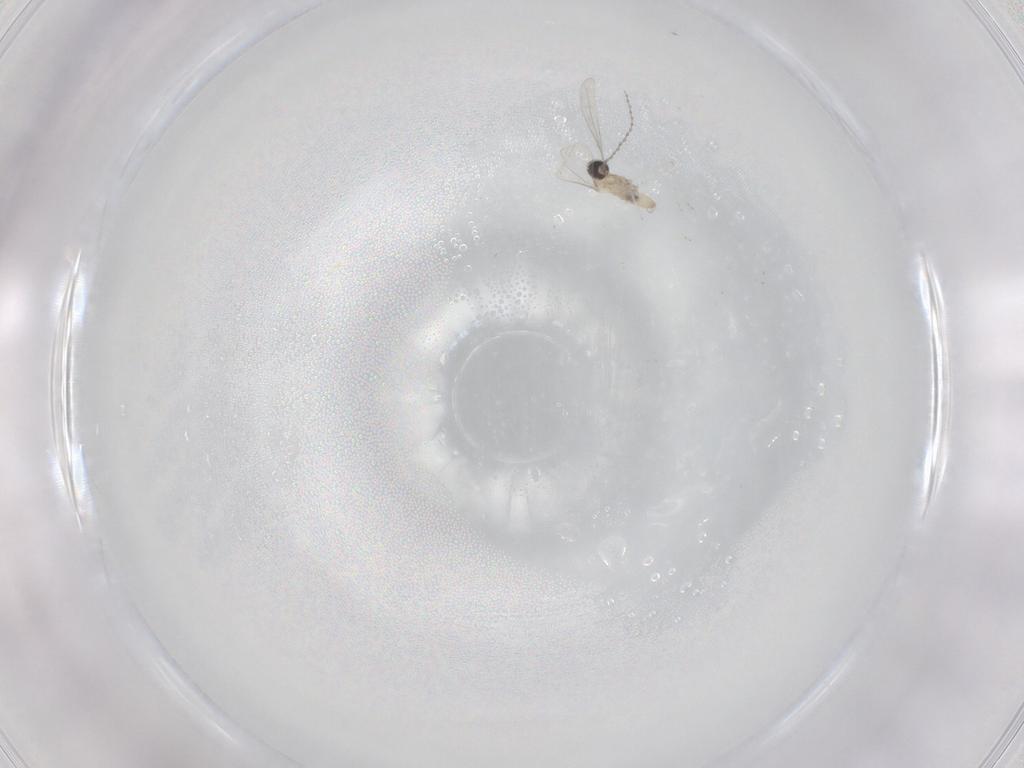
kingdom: Animalia
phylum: Arthropoda
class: Insecta
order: Diptera
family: Cecidomyiidae
